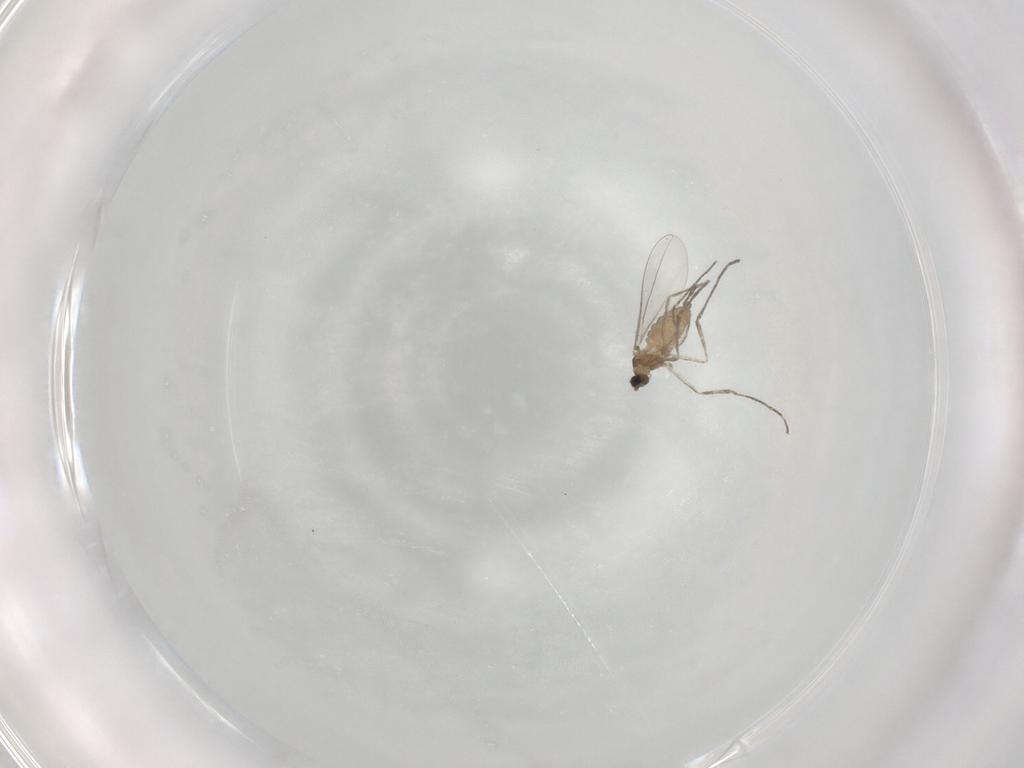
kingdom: Animalia
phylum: Arthropoda
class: Insecta
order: Diptera
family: Cecidomyiidae
